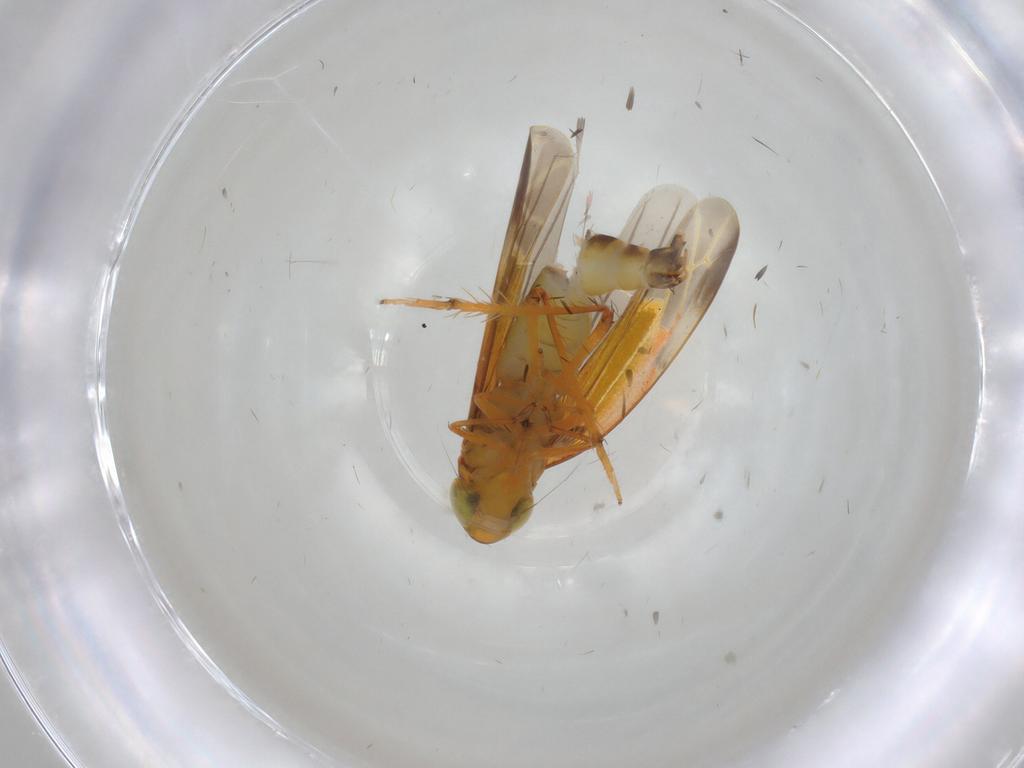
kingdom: Animalia
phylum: Arthropoda
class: Insecta
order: Hemiptera
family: Cicadellidae
